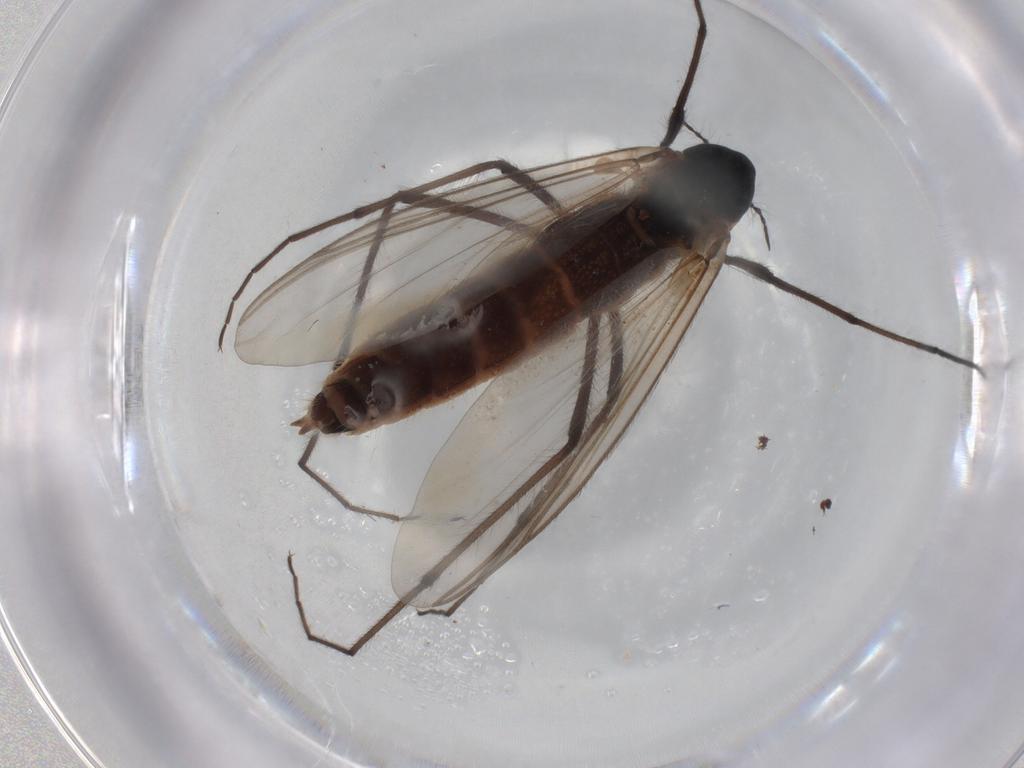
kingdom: Animalia
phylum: Arthropoda
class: Insecta
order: Diptera
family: Chironomidae
